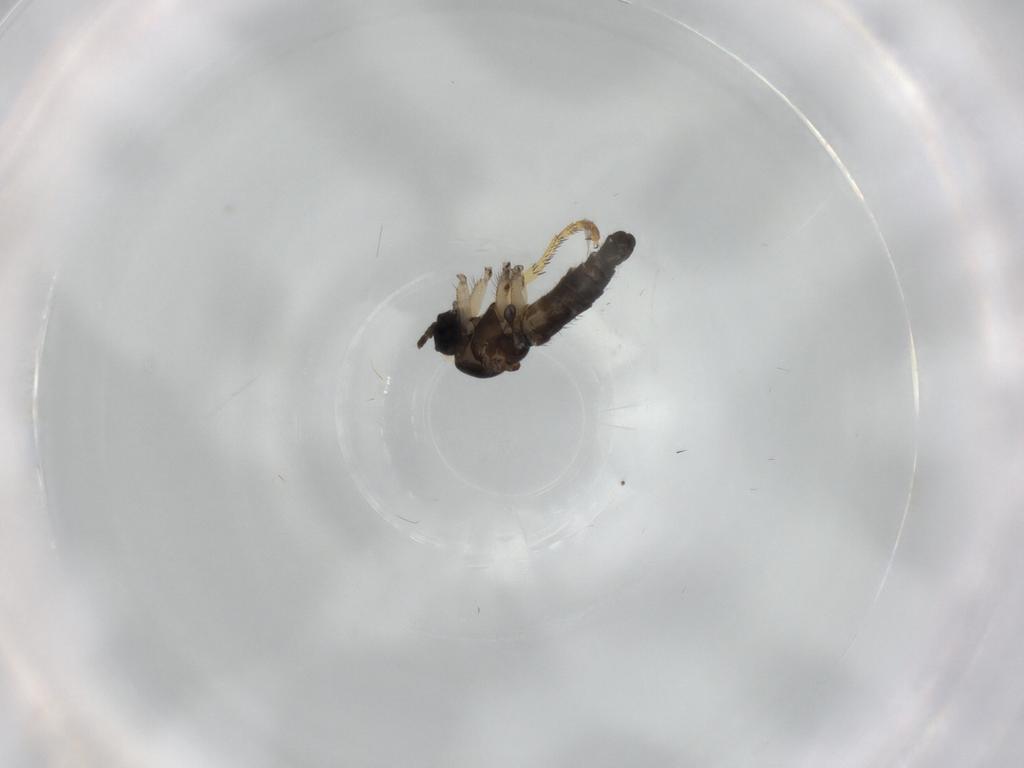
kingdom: Animalia
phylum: Arthropoda
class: Insecta
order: Diptera
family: Sciaridae
